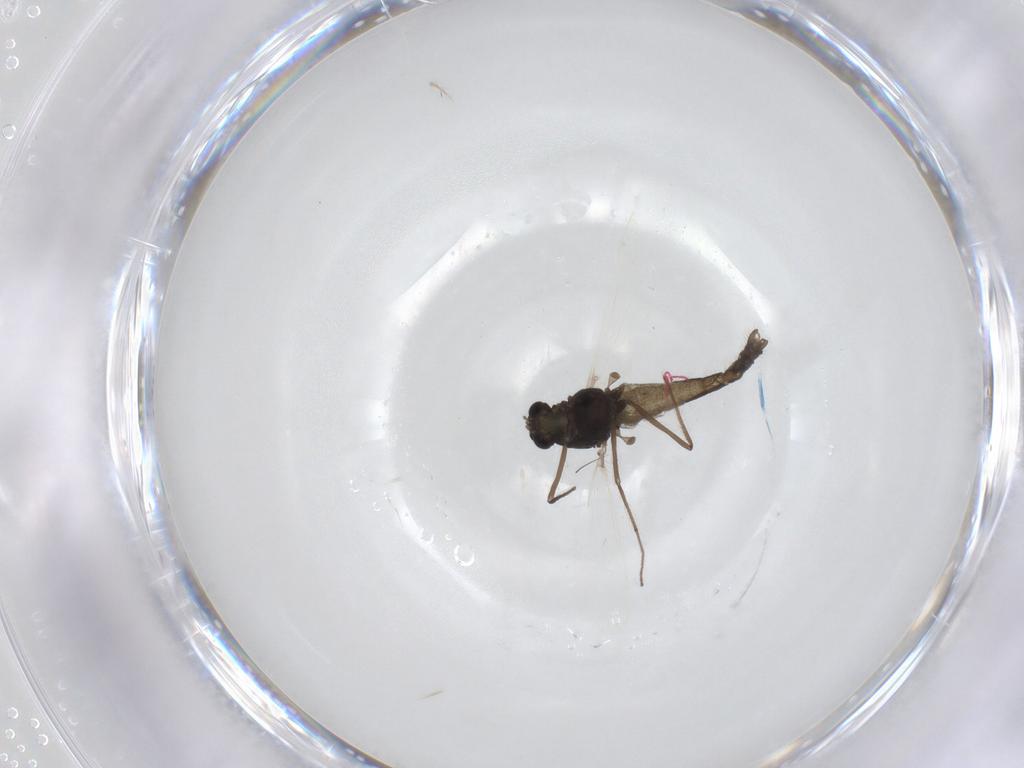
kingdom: Animalia
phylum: Arthropoda
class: Insecta
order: Diptera
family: Chironomidae
